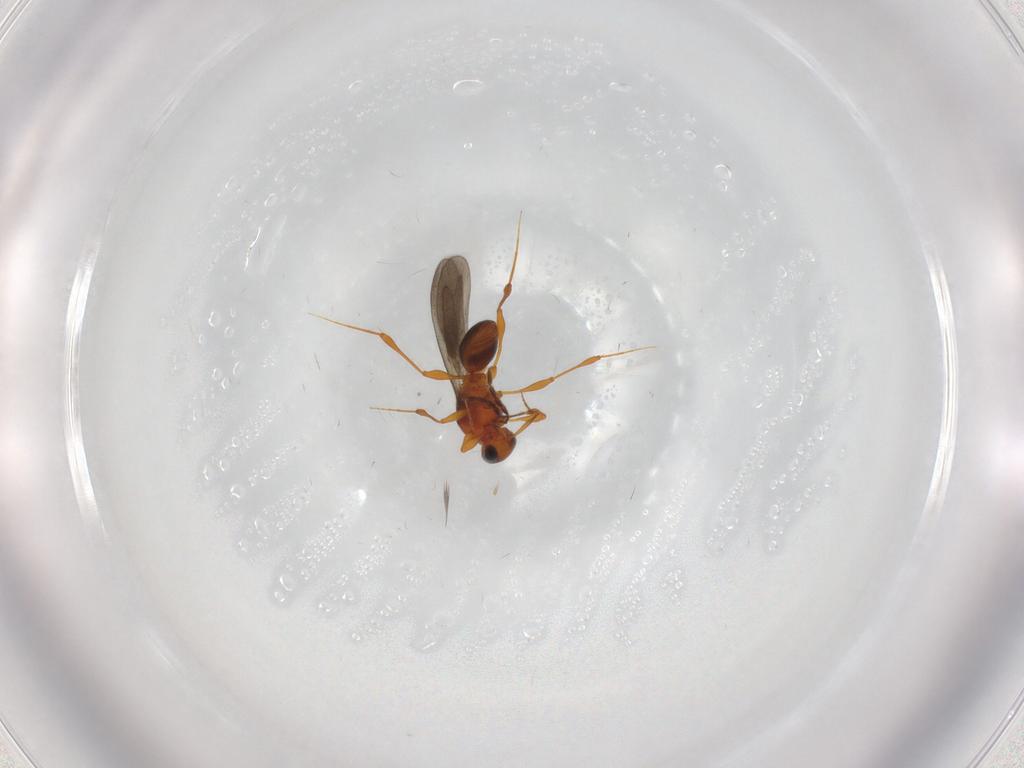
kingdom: Animalia
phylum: Arthropoda
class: Insecta
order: Hymenoptera
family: Platygastridae
